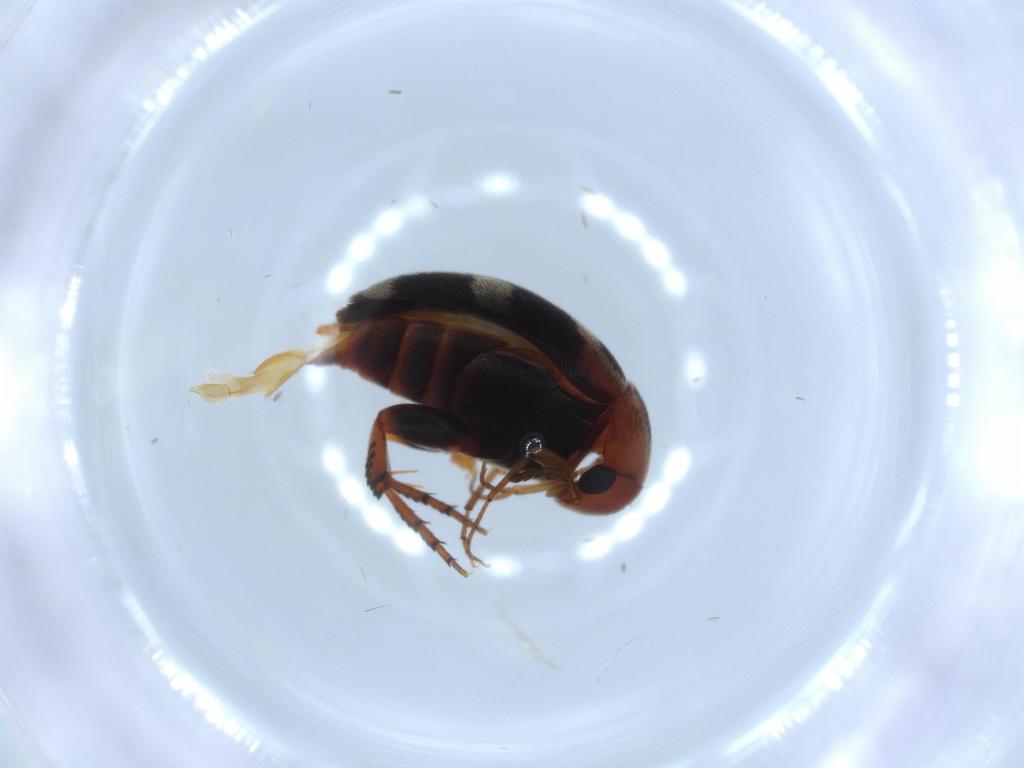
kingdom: Animalia
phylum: Arthropoda
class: Insecta
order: Coleoptera
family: Mordellidae
